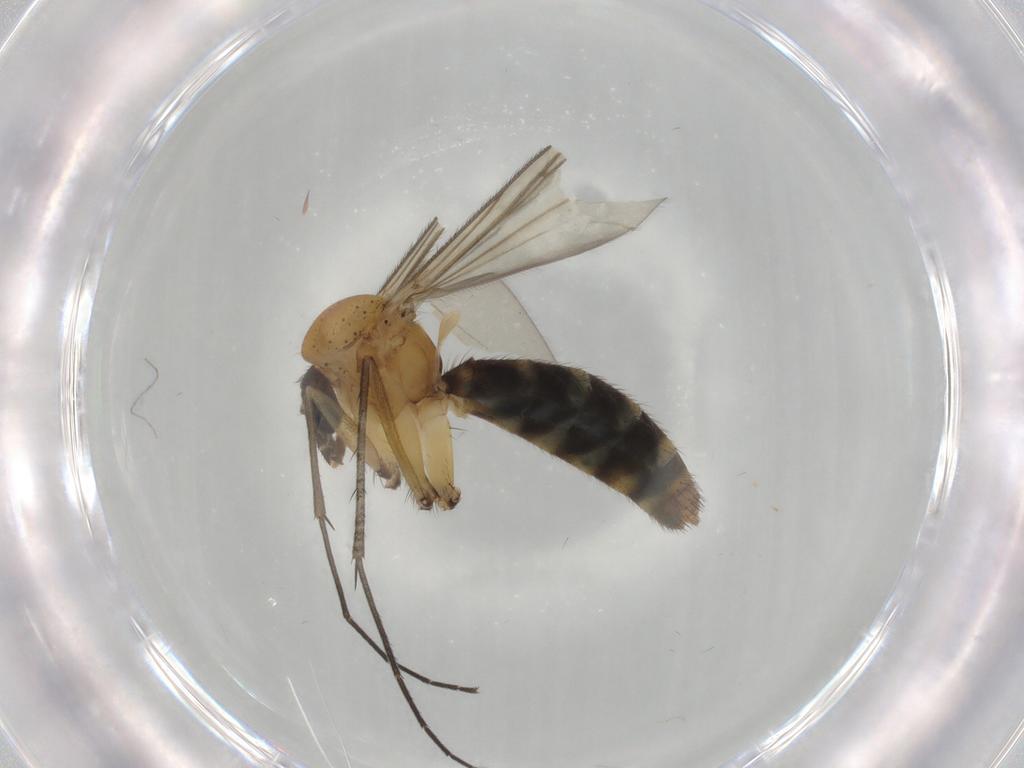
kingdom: Animalia
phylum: Arthropoda
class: Insecta
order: Diptera
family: Mycetophilidae
